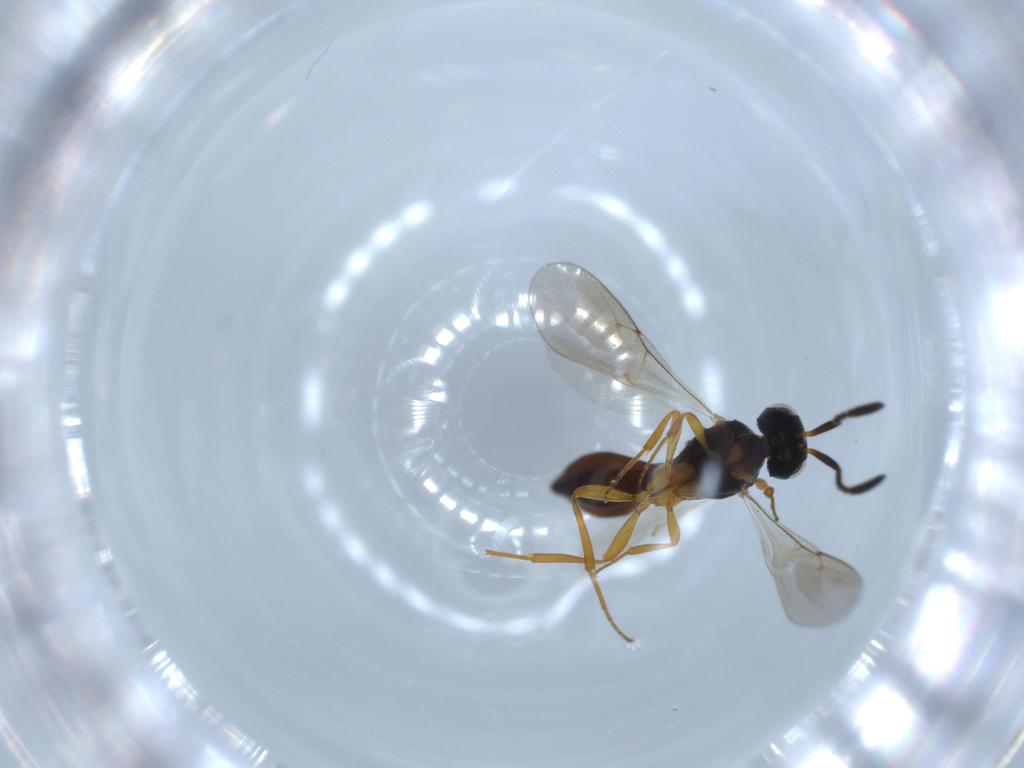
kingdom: Animalia
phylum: Arthropoda
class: Insecta
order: Hymenoptera
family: Scelionidae
